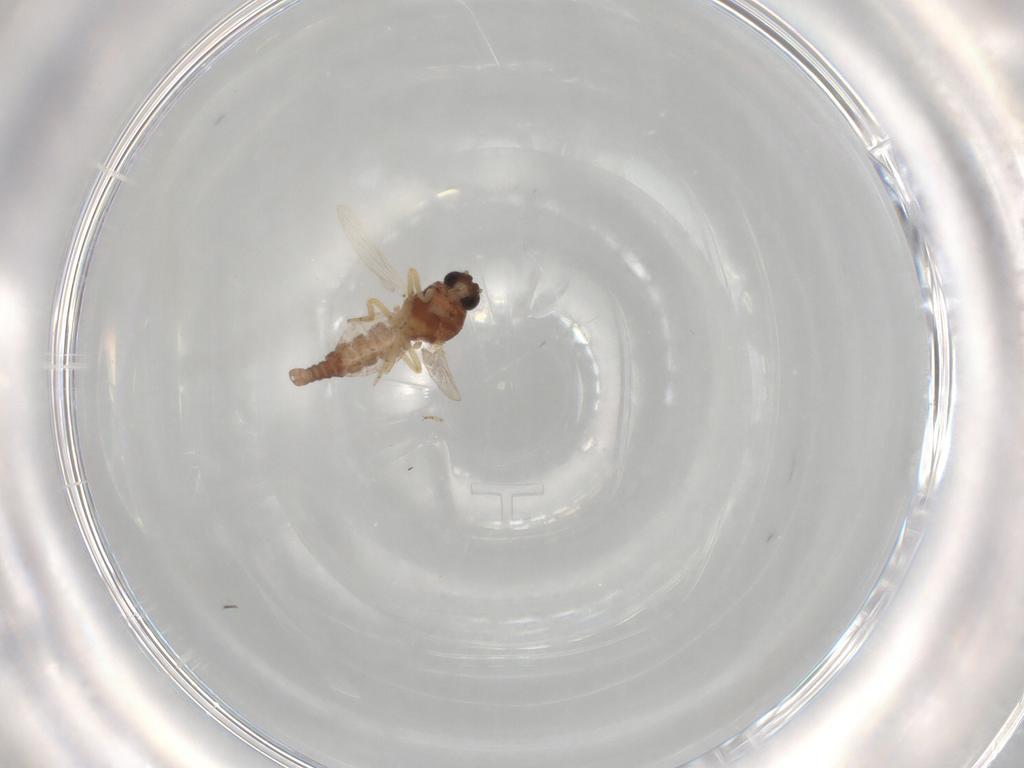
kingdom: Animalia
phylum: Arthropoda
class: Insecta
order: Diptera
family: Ceratopogonidae
